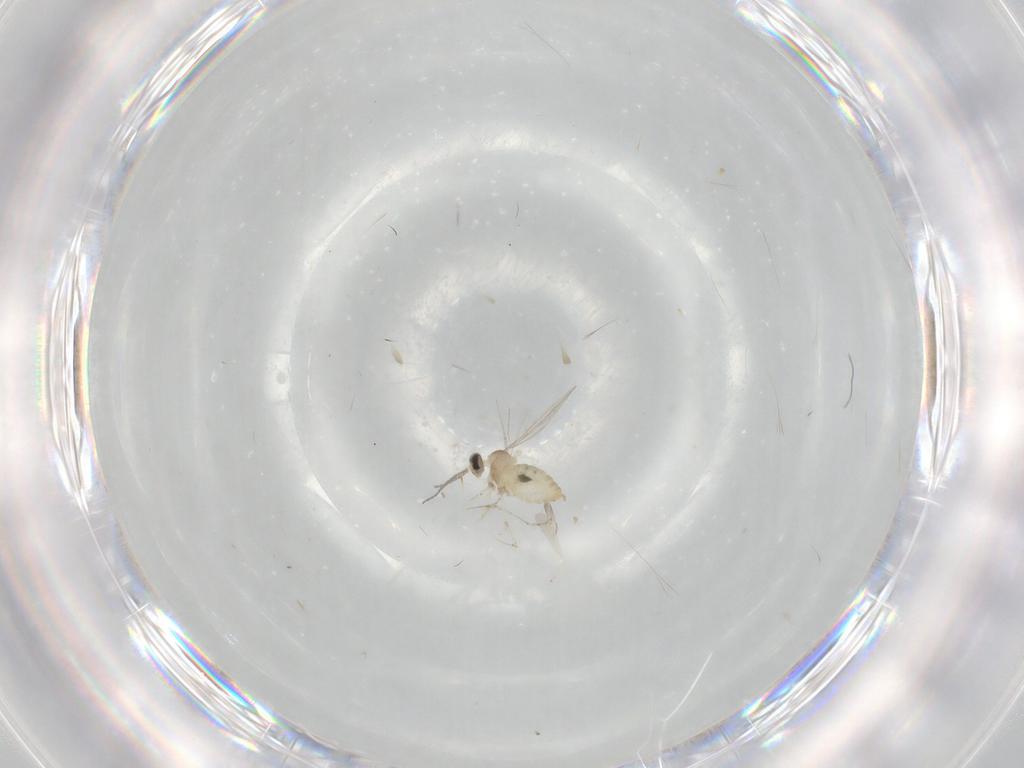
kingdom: Animalia
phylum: Arthropoda
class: Insecta
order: Diptera
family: Cecidomyiidae
